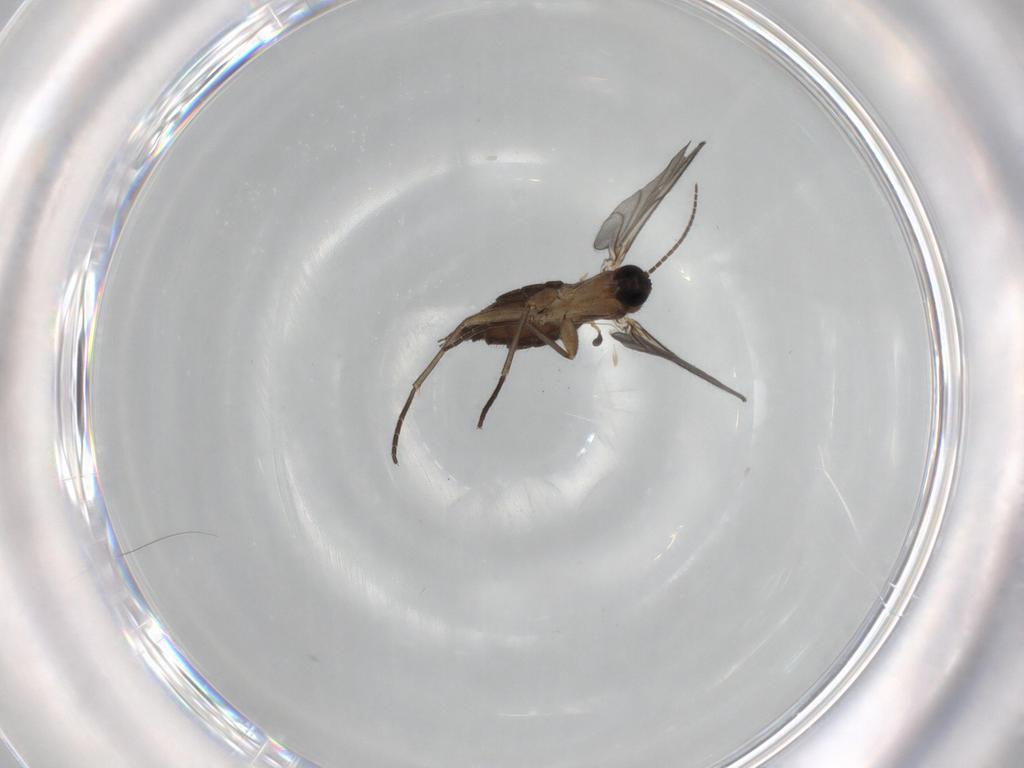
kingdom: Animalia
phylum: Arthropoda
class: Insecta
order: Diptera
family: Sciaridae
